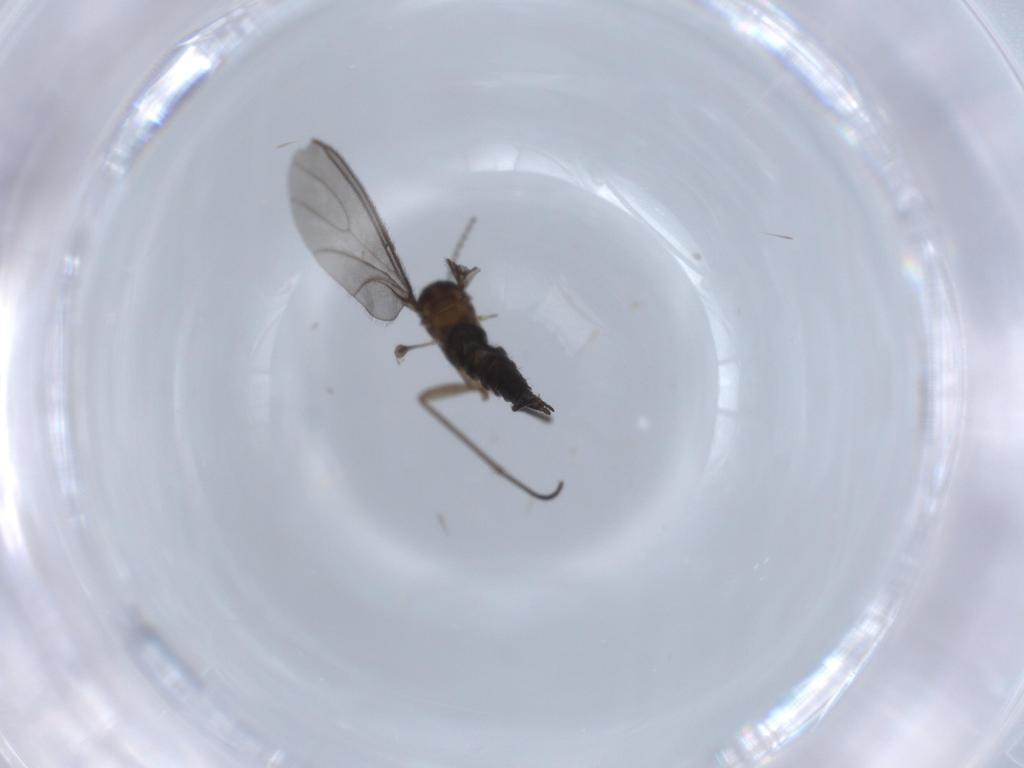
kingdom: Animalia
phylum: Arthropoda
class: Insecta
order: Diptera
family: Sciaridae
